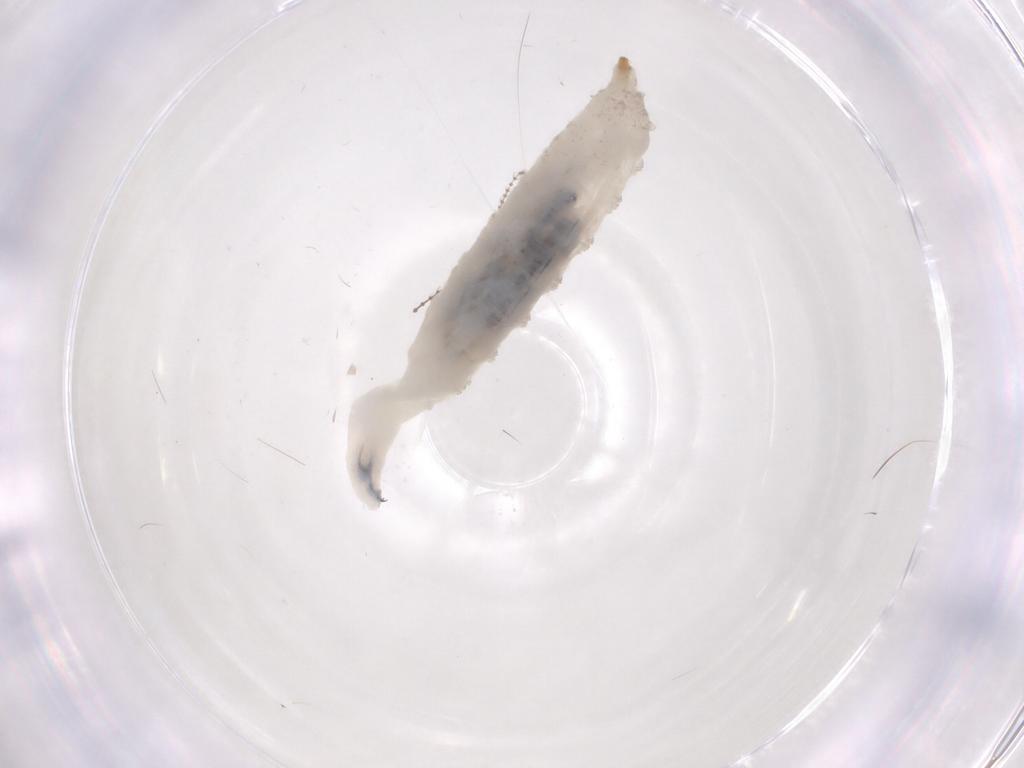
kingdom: Animalia
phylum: Arthropoda
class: Insecta
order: Diptera
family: Drosophilidae
